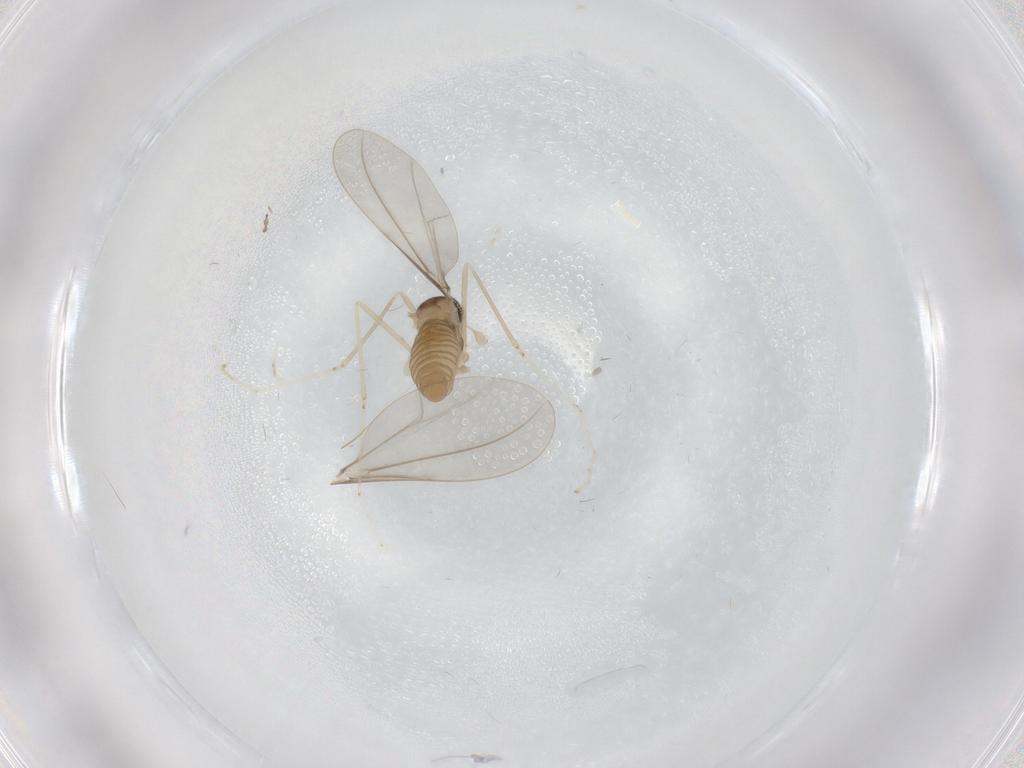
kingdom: Animalia
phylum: Arthropoda
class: Insecta
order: Diptera
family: Cecidomyiidae
